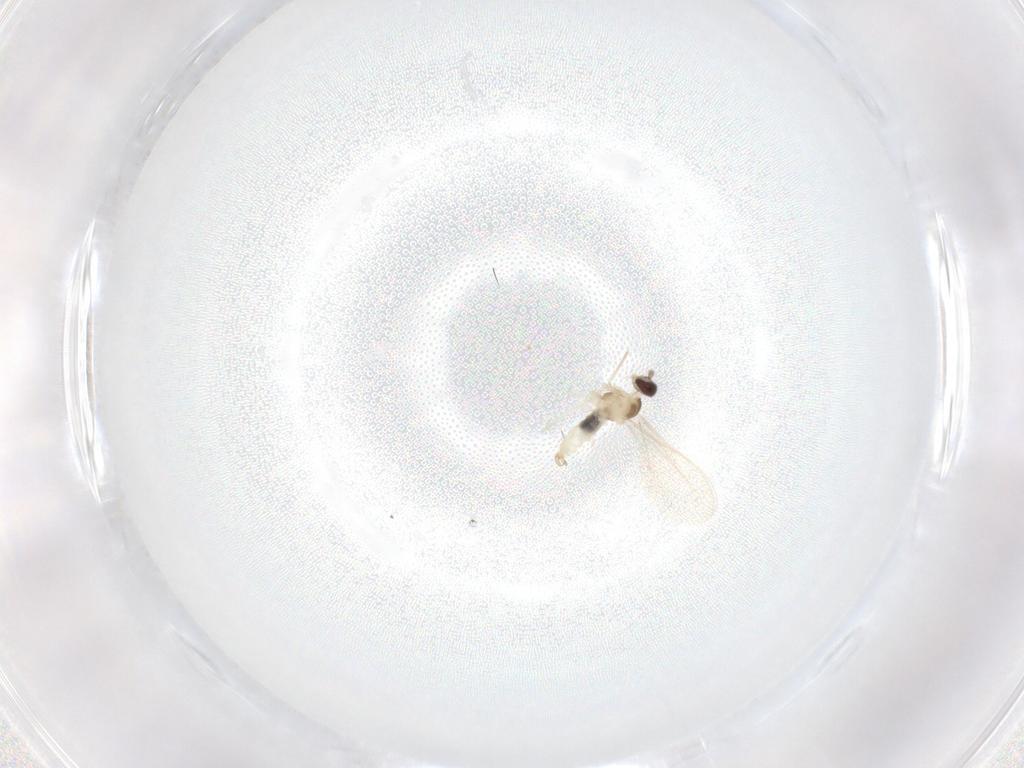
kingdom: Animalia
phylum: Arthropoda
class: Insecta
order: Diptera
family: Cecidomyiidae
